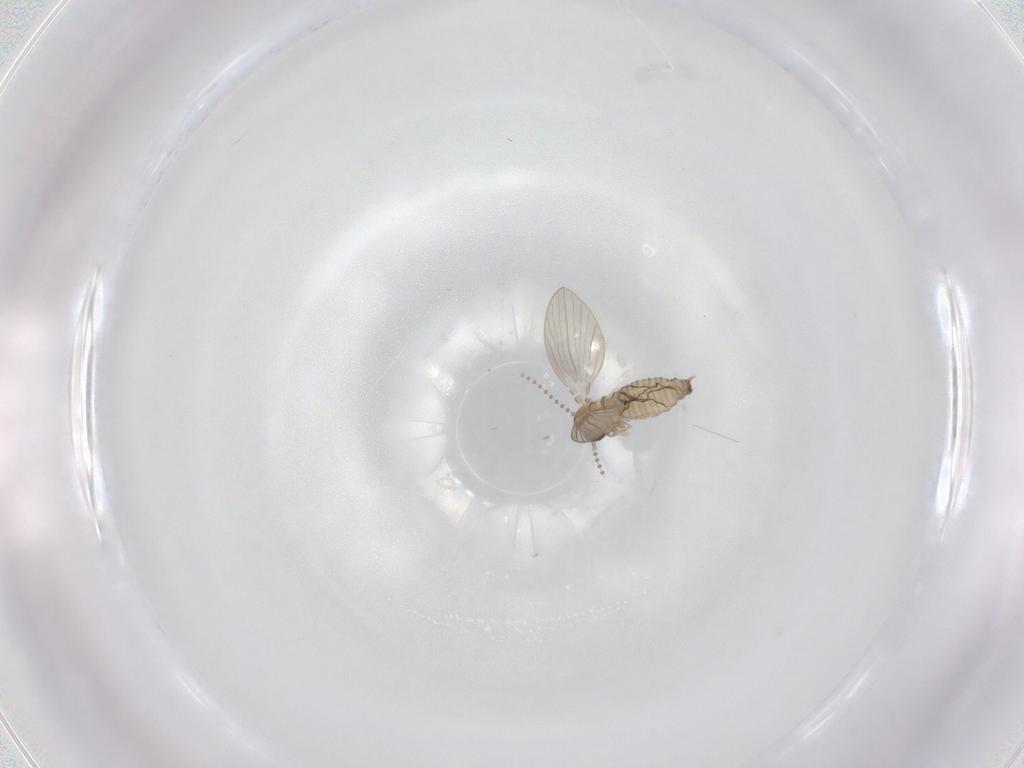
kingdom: Animalia
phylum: Arthropoda
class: Insecta
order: Diptera
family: Psychodidae
